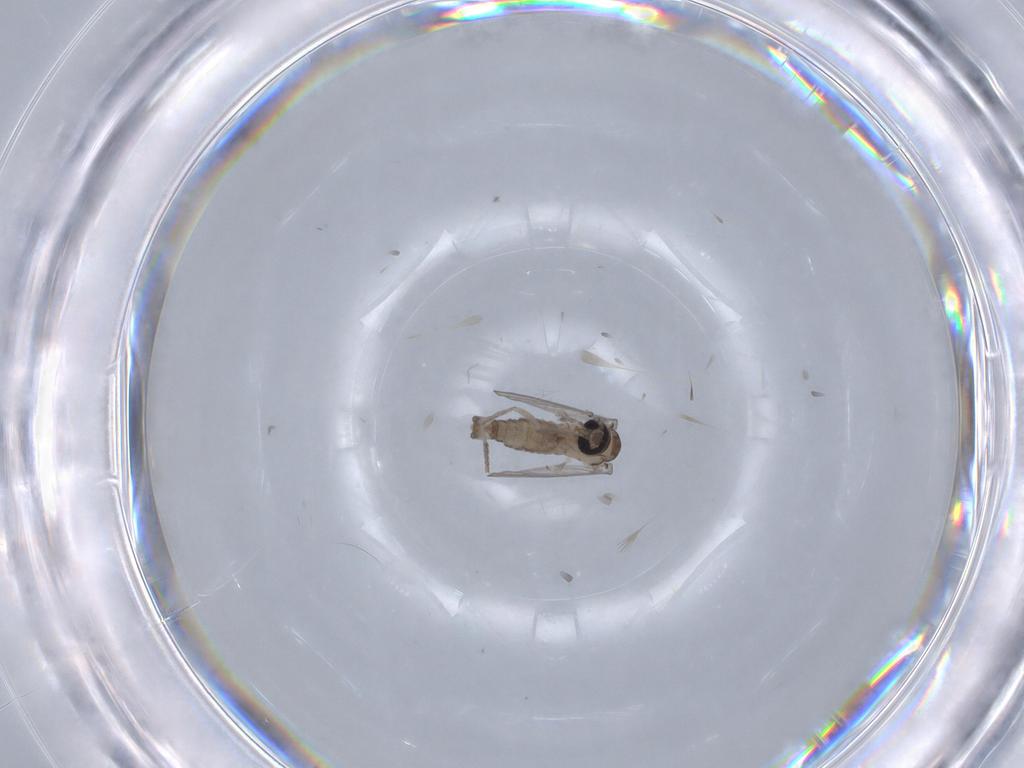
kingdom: Animalia
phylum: Arthropoda
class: Insecta
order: Diptera
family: Psychodidae
